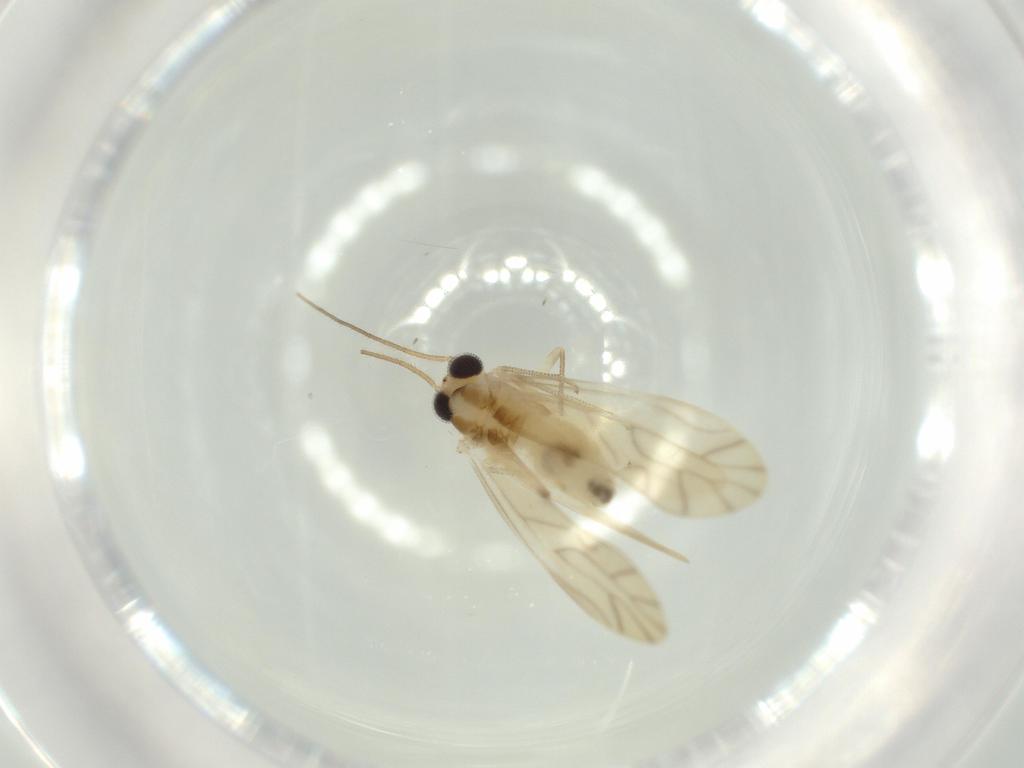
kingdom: Animalia
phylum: Arthropoda
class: Insecta
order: Psocodea
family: Caeciliusidae
